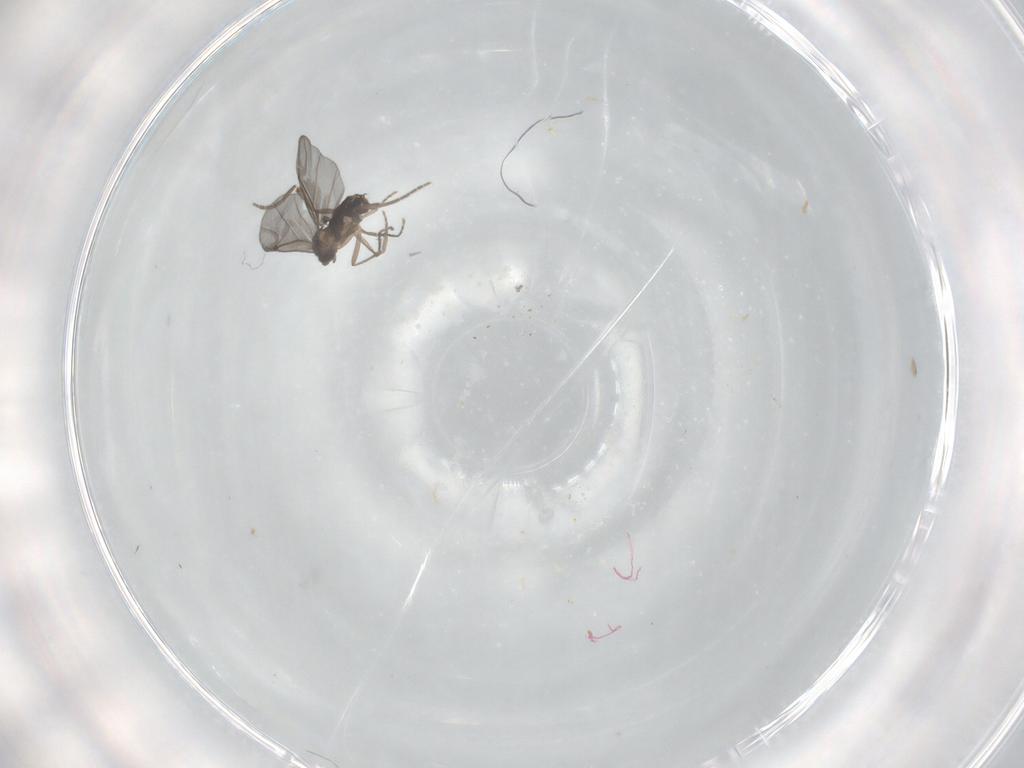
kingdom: Animalia
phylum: Arthropoda
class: Insecta
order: Diptera
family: Phoridae
